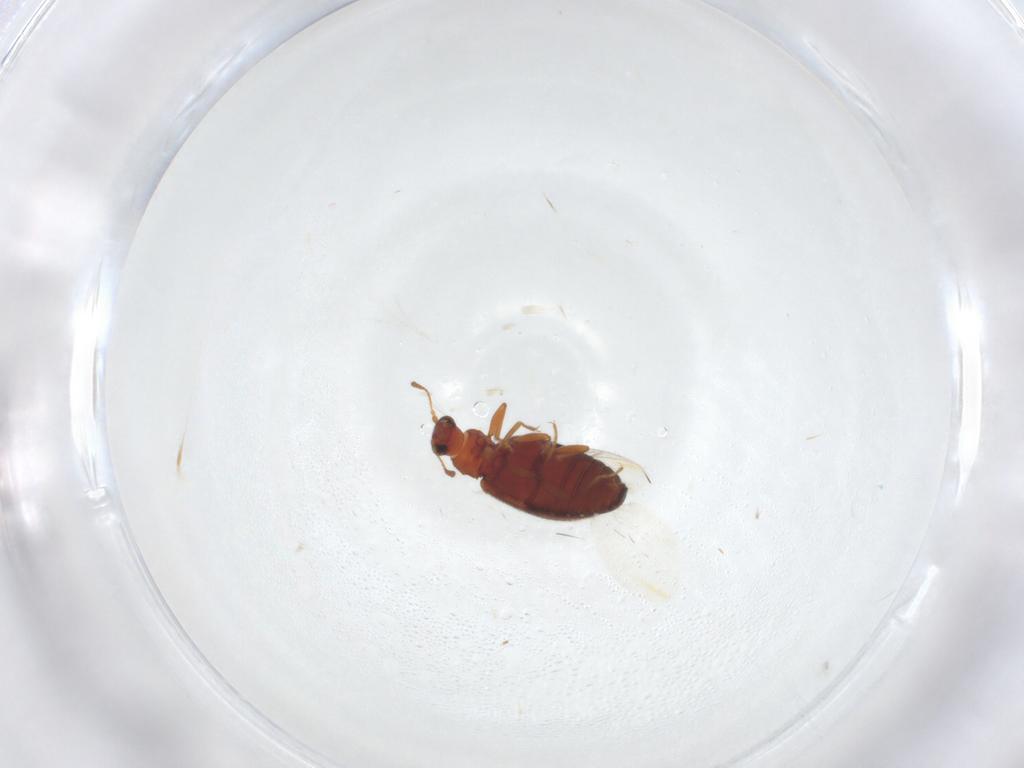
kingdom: Animalia
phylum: Arthropoda
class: Insecta
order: Coleoptera
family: Latridiidae
